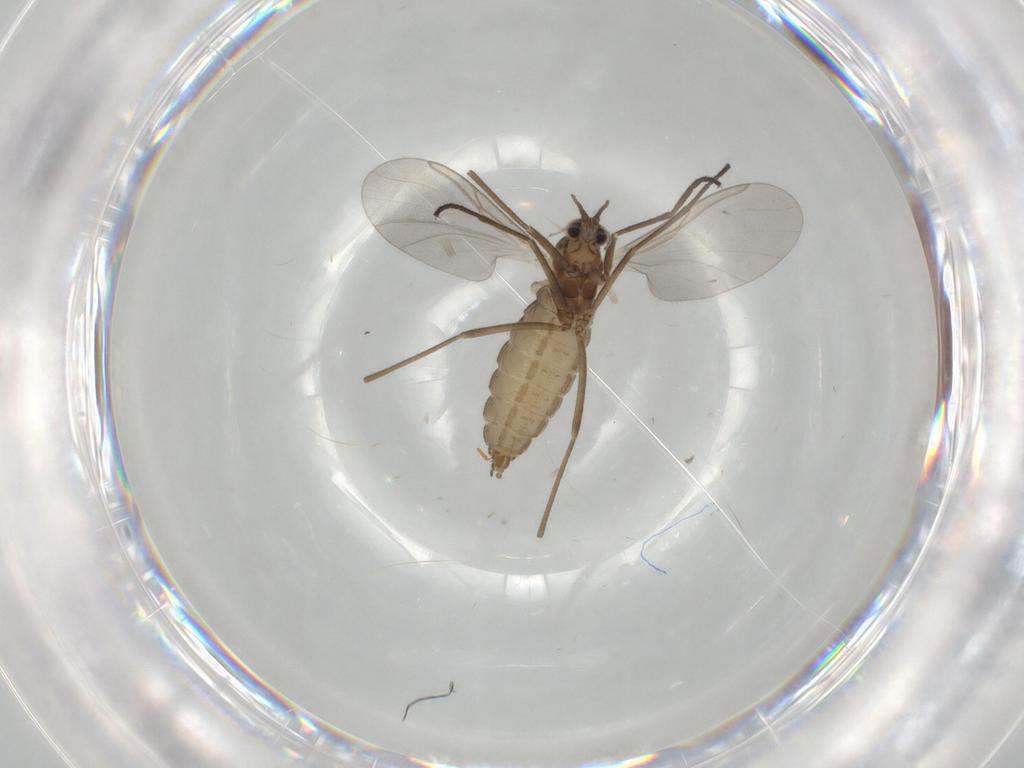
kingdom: Animalia
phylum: Arthropoda
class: Insecta
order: Diptera
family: Cecidomyiidae
